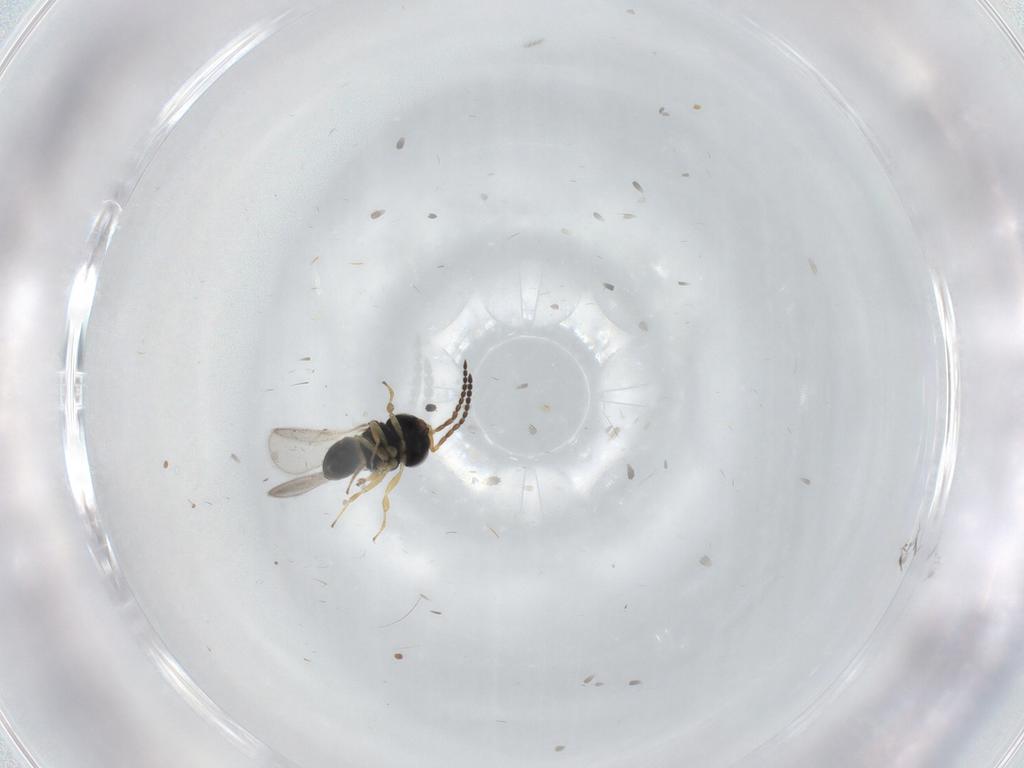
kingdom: Animalia
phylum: Arthropoda
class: Insecta
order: Hymenoptera
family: Scelionidae
